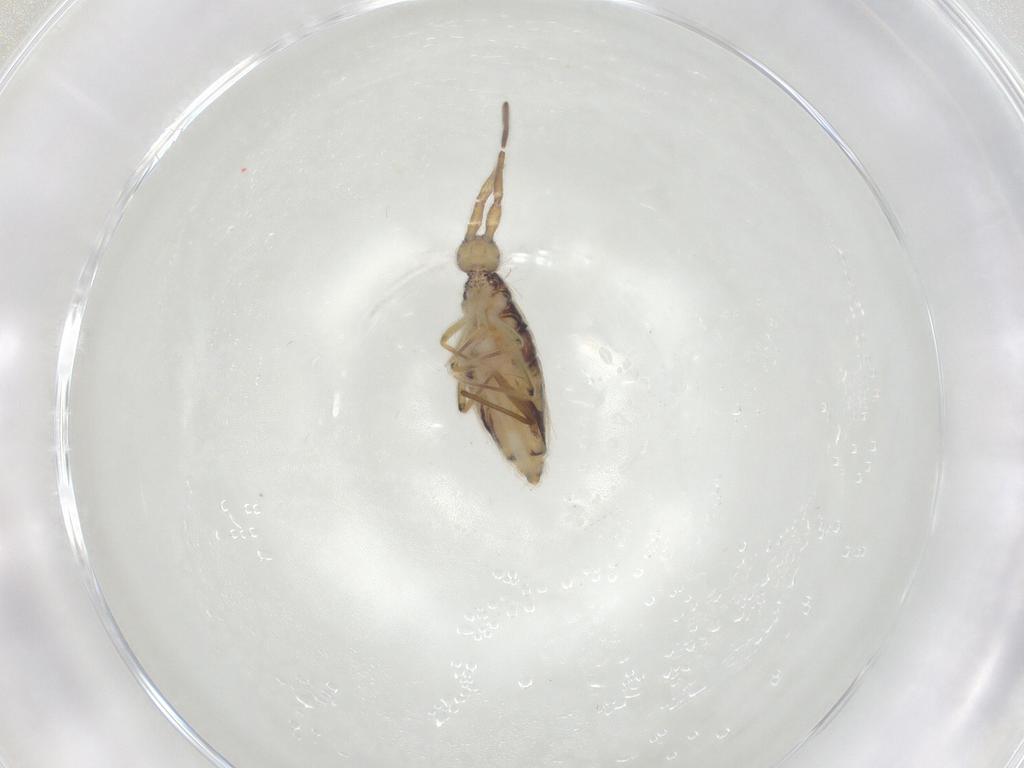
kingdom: Animalia
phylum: Arthropoda
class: Collembola
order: Entomobryomorpha
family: Entomobryidae
